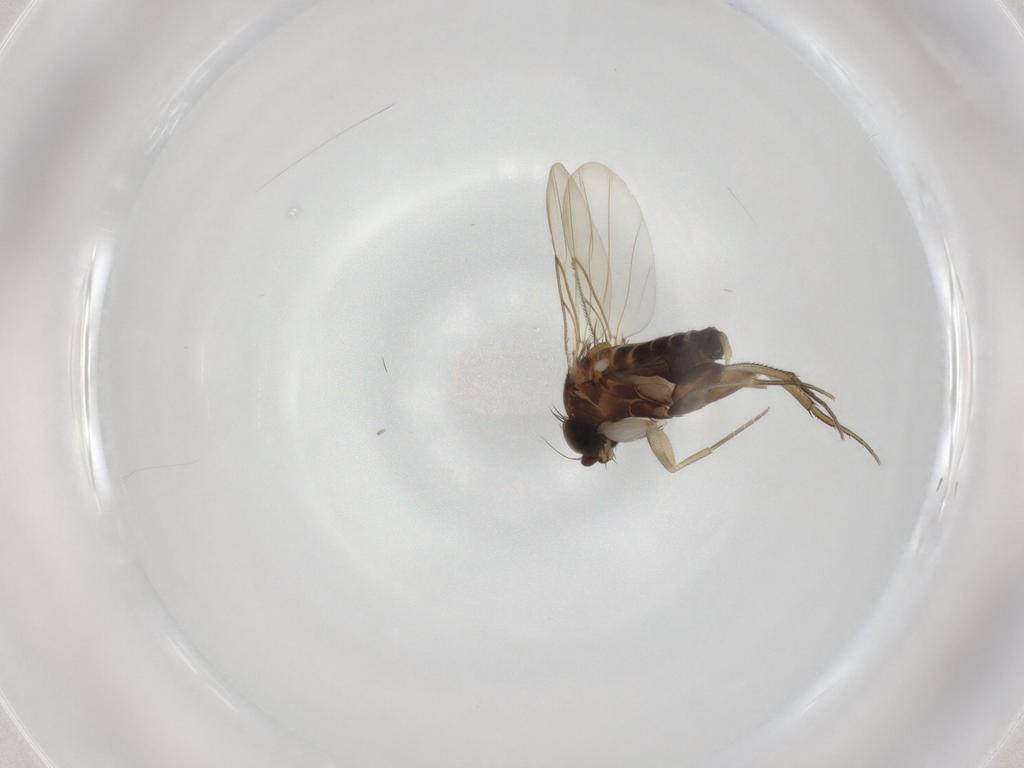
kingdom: Animalia
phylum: Arthropoda
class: Insecta
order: Diptera
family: Phoridae
